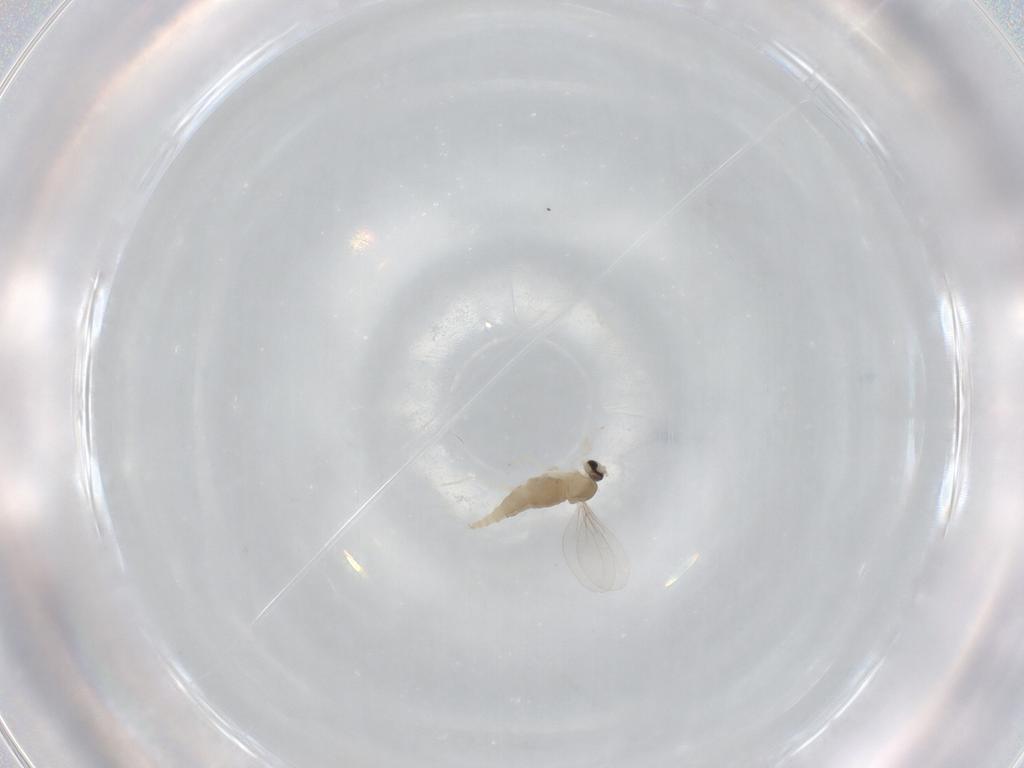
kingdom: Animalia
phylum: Arthropoda
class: Insecta
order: Diptera
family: Cecidomyiidae
